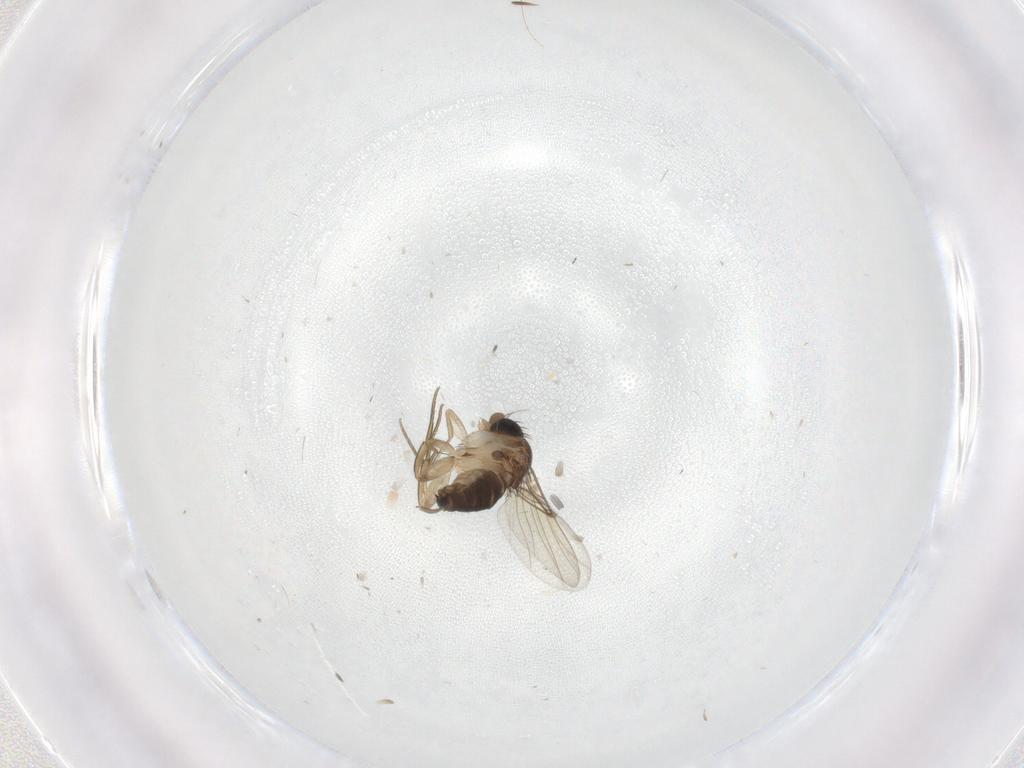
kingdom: Animalia
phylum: Arthropoda
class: Insecta
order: Diptera
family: Sciaridae
